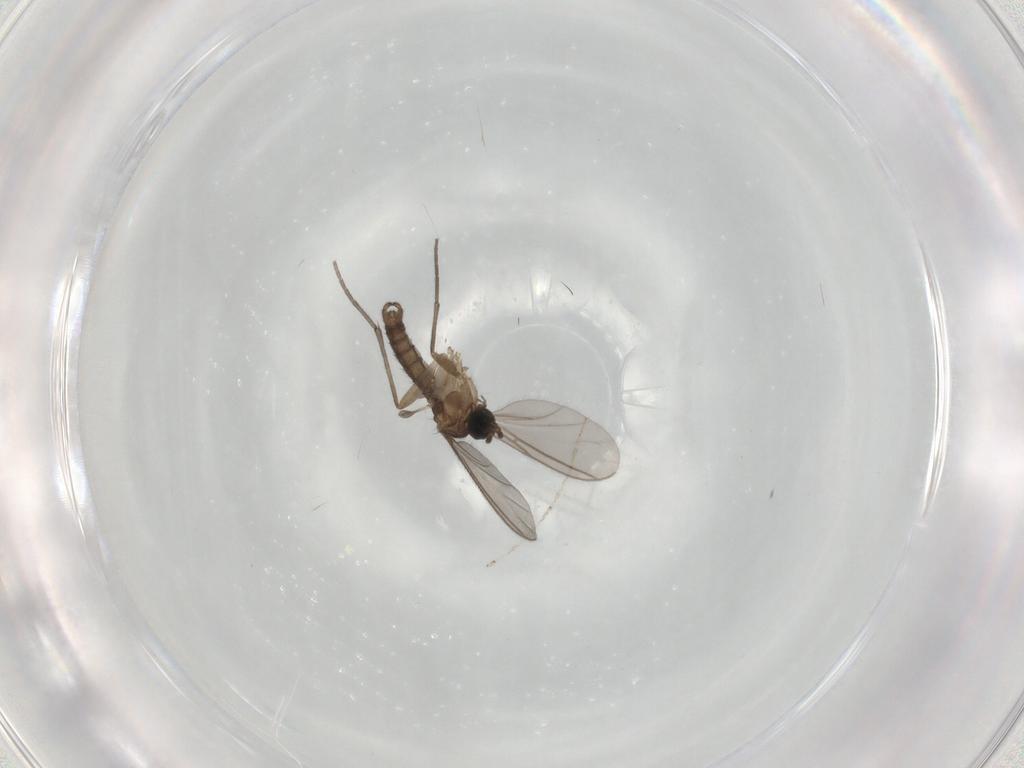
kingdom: Animalia
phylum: Arthropoda
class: Insecta
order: Diptera
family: Sciaridae
